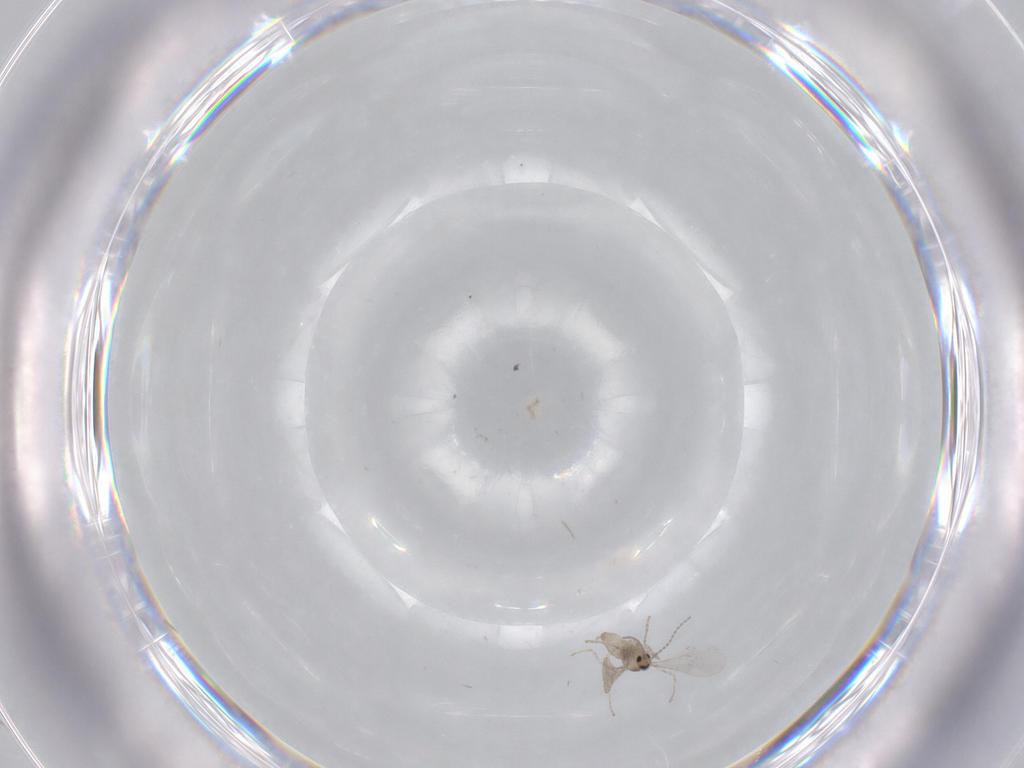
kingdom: Animalia
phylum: Arthropoda
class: Insecta
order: Diptera
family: Cecidomyiidae
